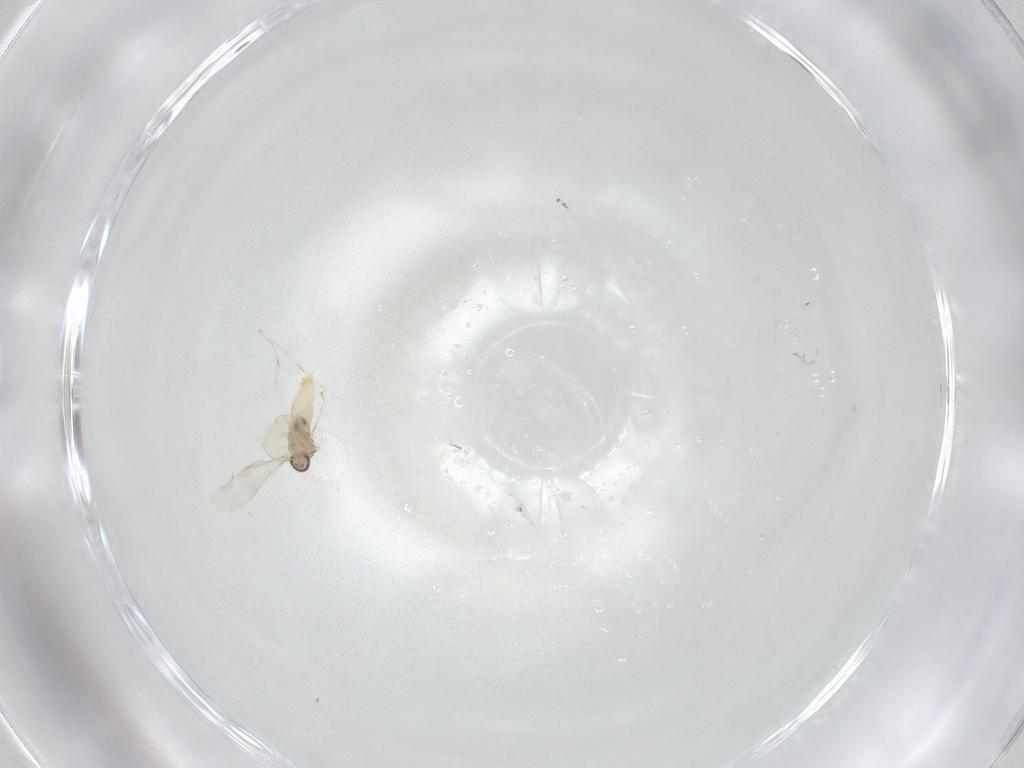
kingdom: Animalia
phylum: Arthropoda
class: Insecta
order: Diptera
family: Cecidomyiidae
